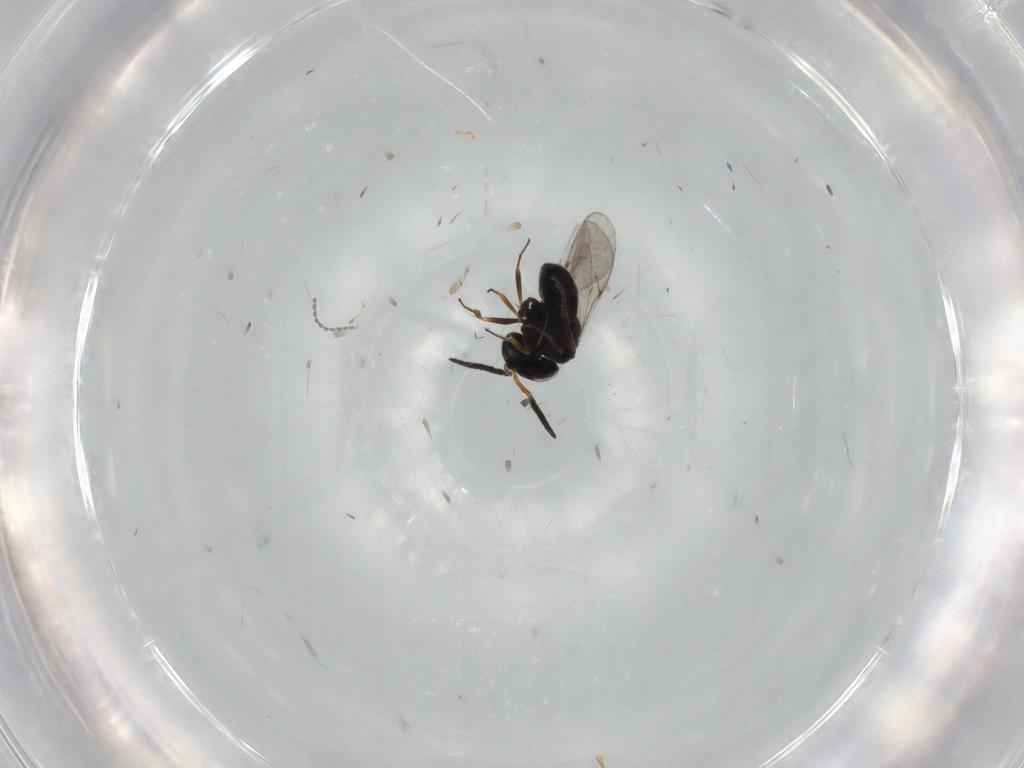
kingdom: Animalia
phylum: Arthropoda
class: Insecta
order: Hymenoptera
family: Scelionidae
